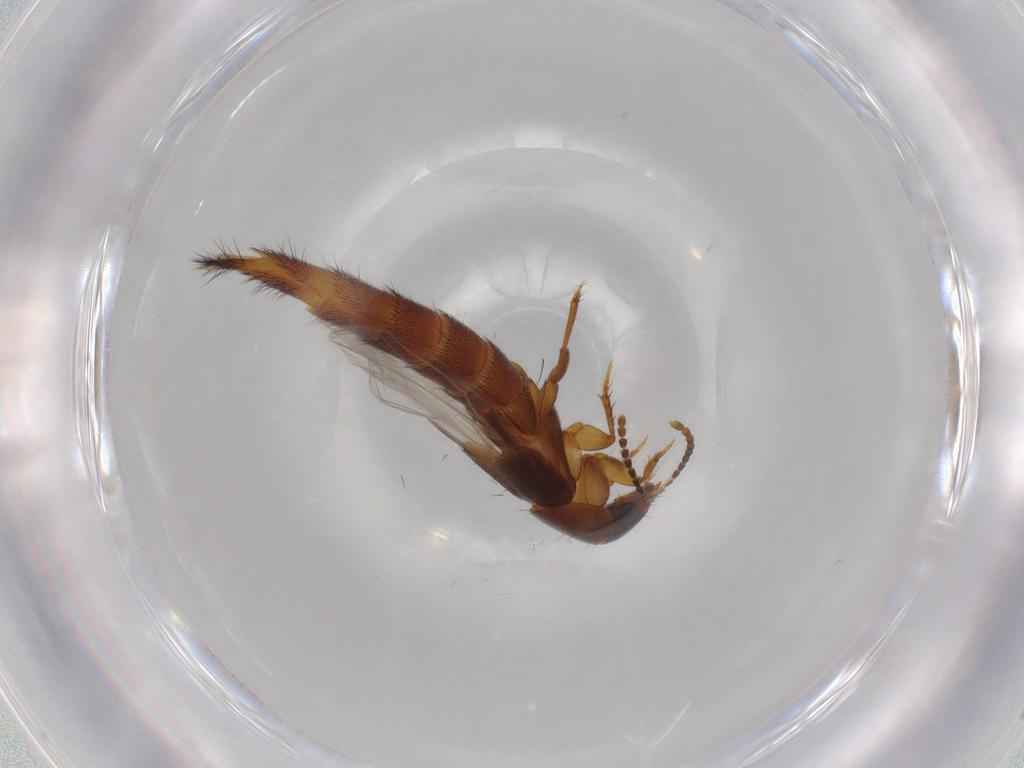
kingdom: Animalia
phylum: Arthropoda
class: Insecta
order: Coleoptera
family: Staphylinidae
